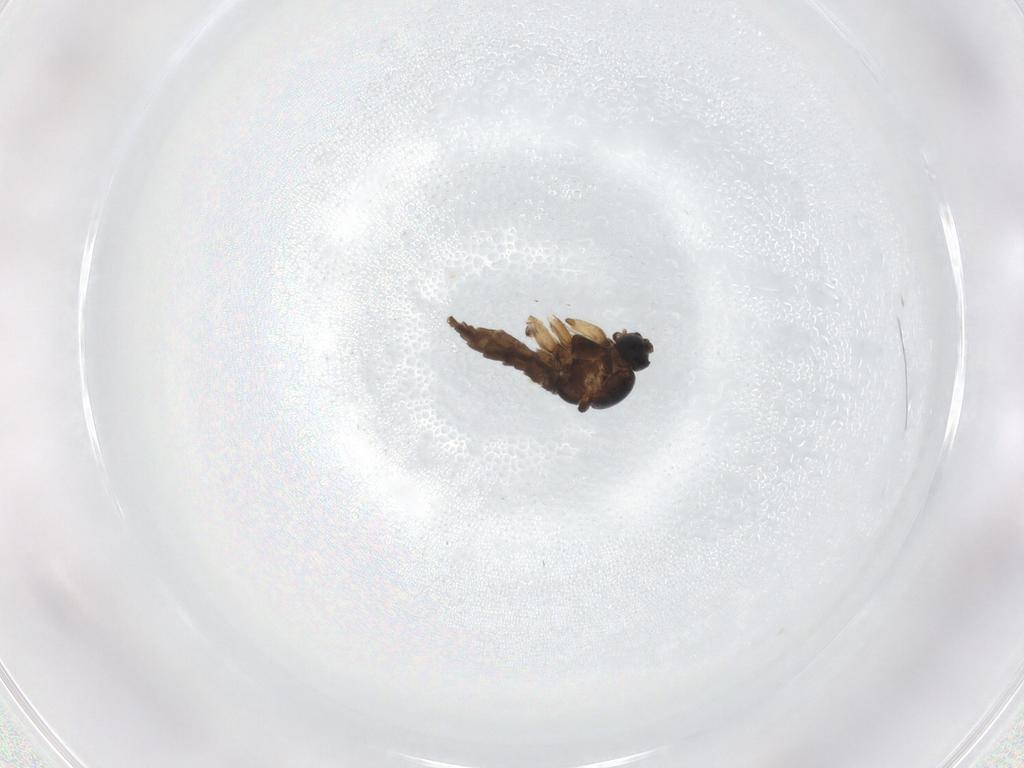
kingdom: Animalia
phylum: Arthropoda
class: Insecta
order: Diptera
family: Sciaridae
